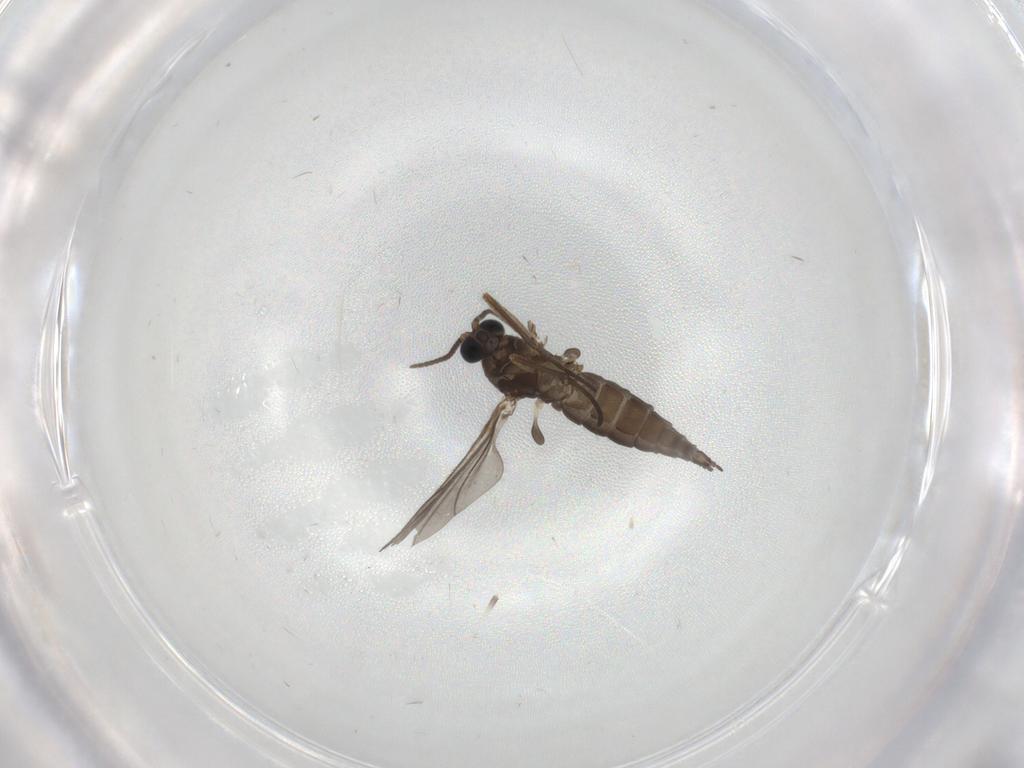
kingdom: Animalia
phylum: Arthropoda
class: Insecta
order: Diptera
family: Sciaridae
